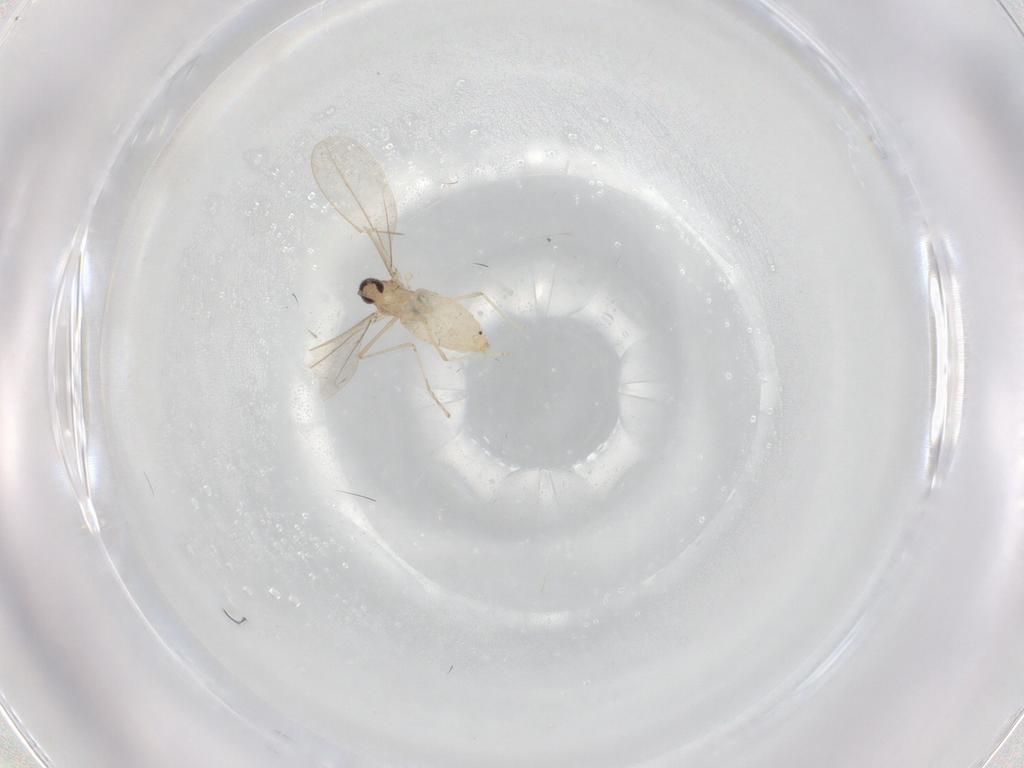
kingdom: Animalia
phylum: Arthropoda
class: Insecta
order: Diptera
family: Cecidomyiidae
